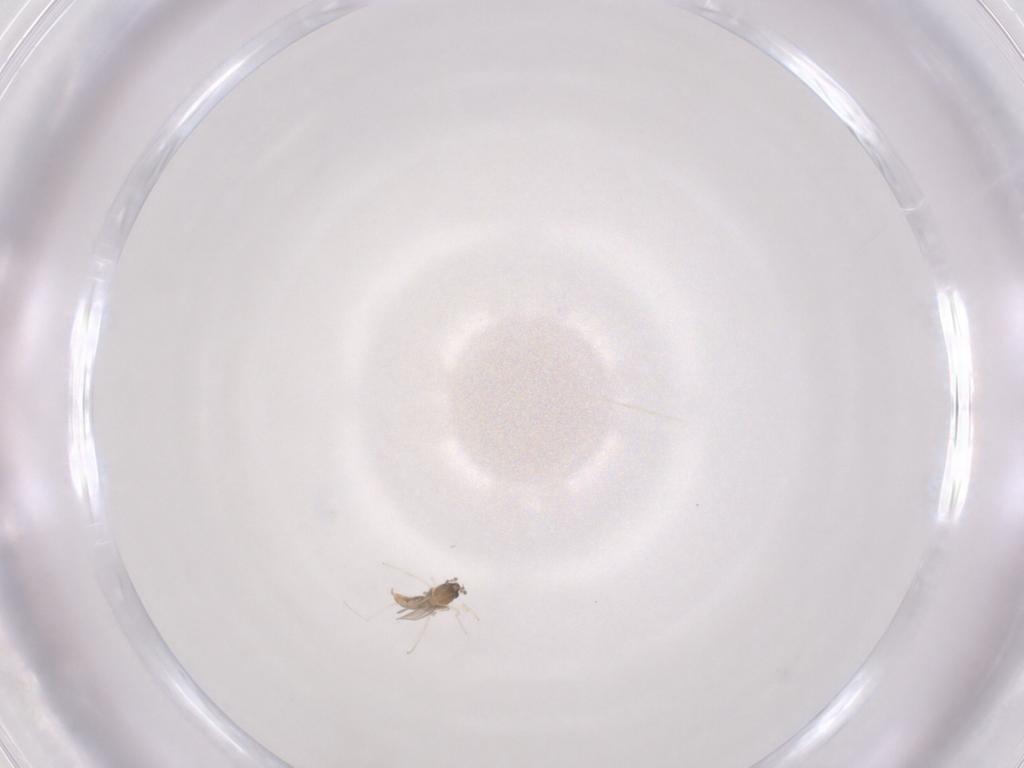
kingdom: Animalia
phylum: Arthropoda
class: Insecta
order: Diptera
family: Cecidomyiidae
